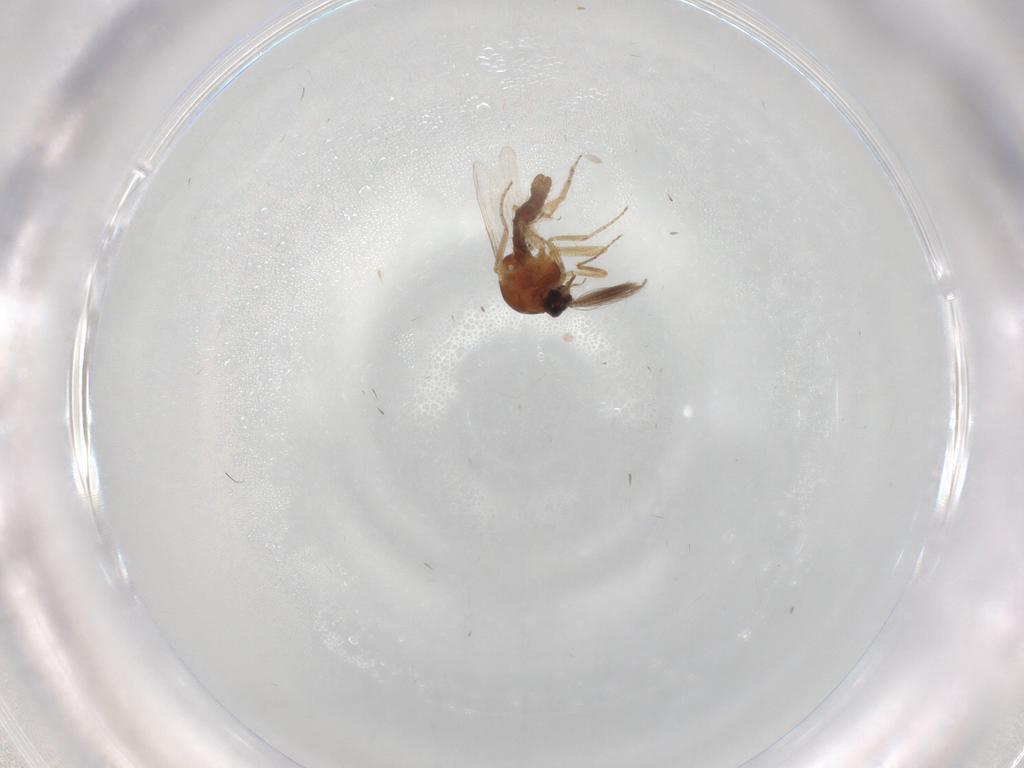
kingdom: Animalia
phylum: Arthropoda
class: Insecta
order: Diptera
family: Ceratopogonidae
